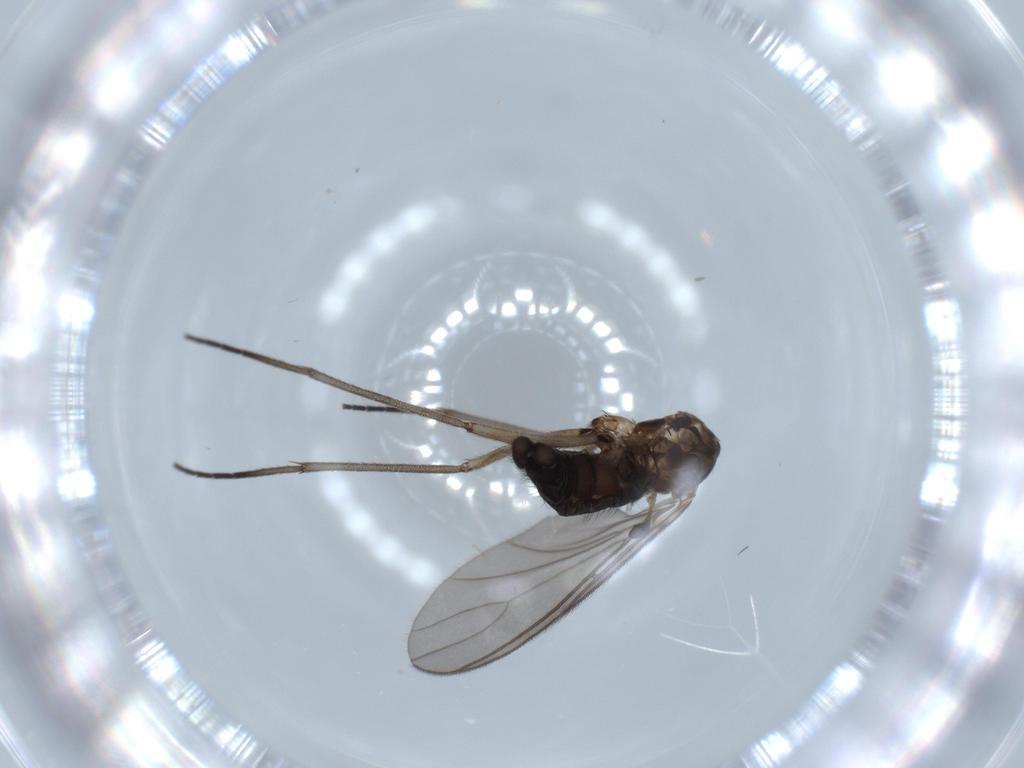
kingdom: Animalia
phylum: Arthropoda
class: Insecta
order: Diptera
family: Sciaridae
